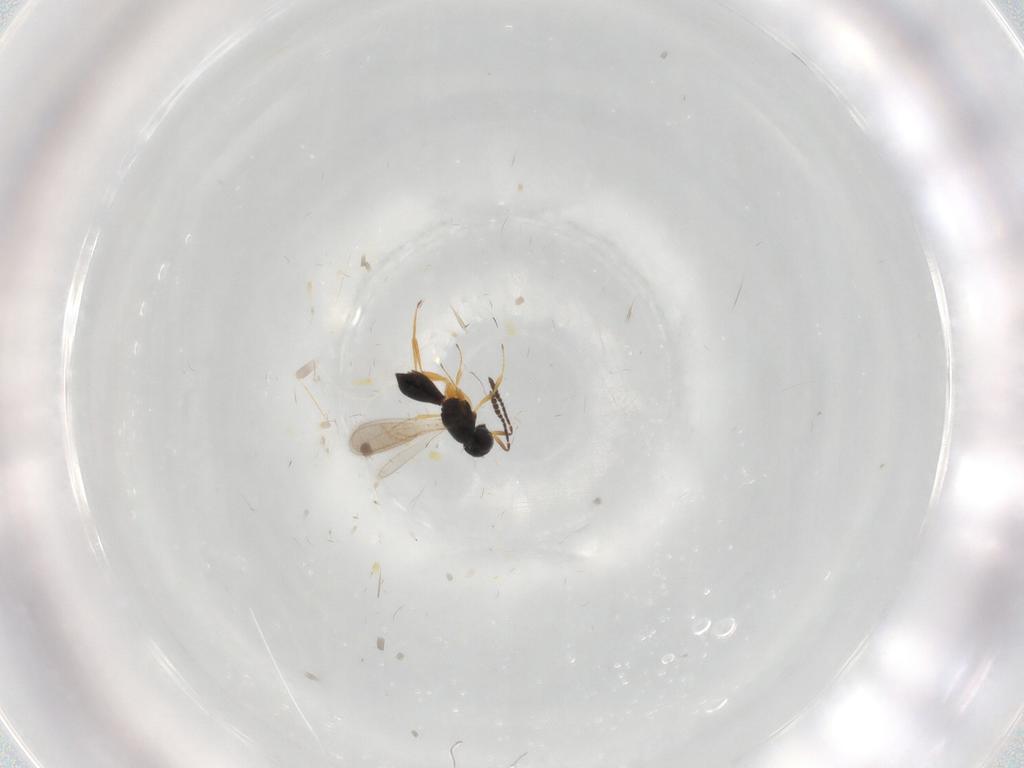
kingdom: Animalia
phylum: Arthropoda
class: Insecta
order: Hymenoptera
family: Scelionidae
